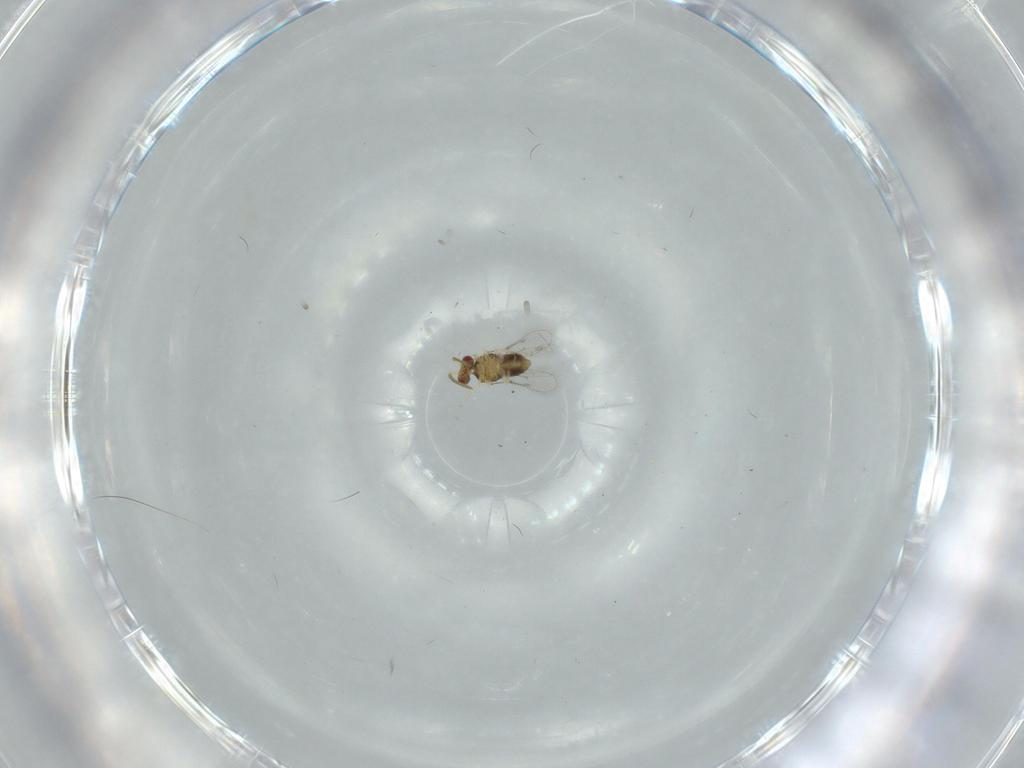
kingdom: Animalia
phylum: Arthropoda
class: Insecta
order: Hymenoptera
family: Aphelinidae
